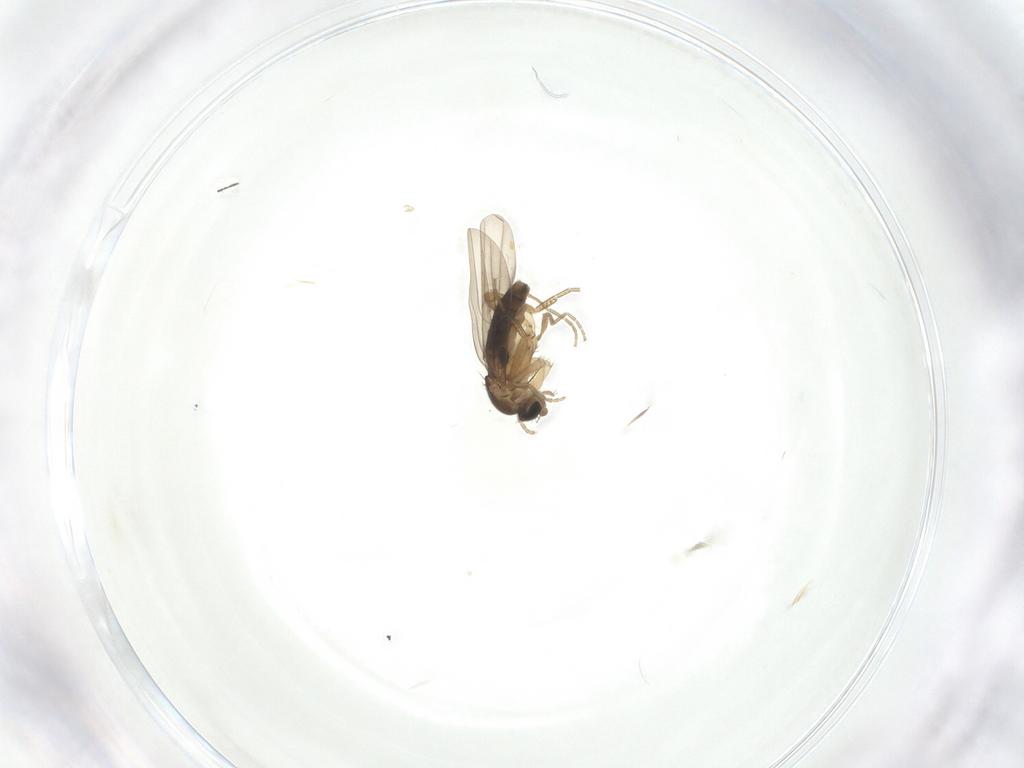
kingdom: Animalia
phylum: Arthropoda
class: Insecta
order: Diptera
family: Phoridae
